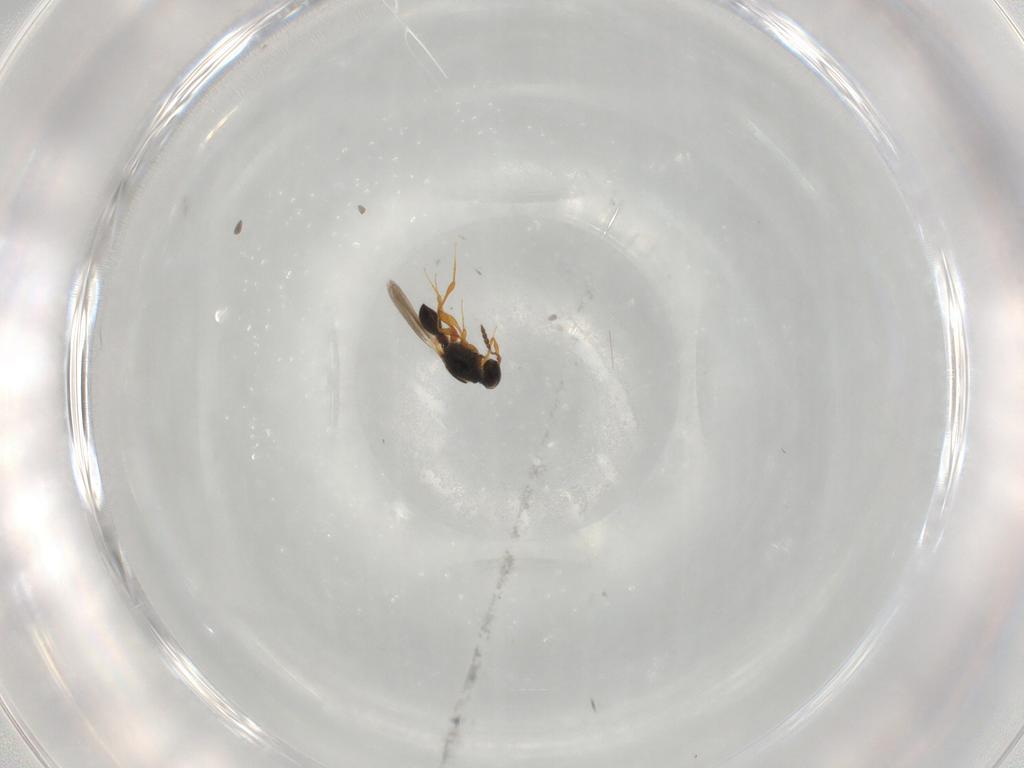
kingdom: Animalia
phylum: Arthropoda
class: Insecta
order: Hymenoptera
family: Platygastridae
